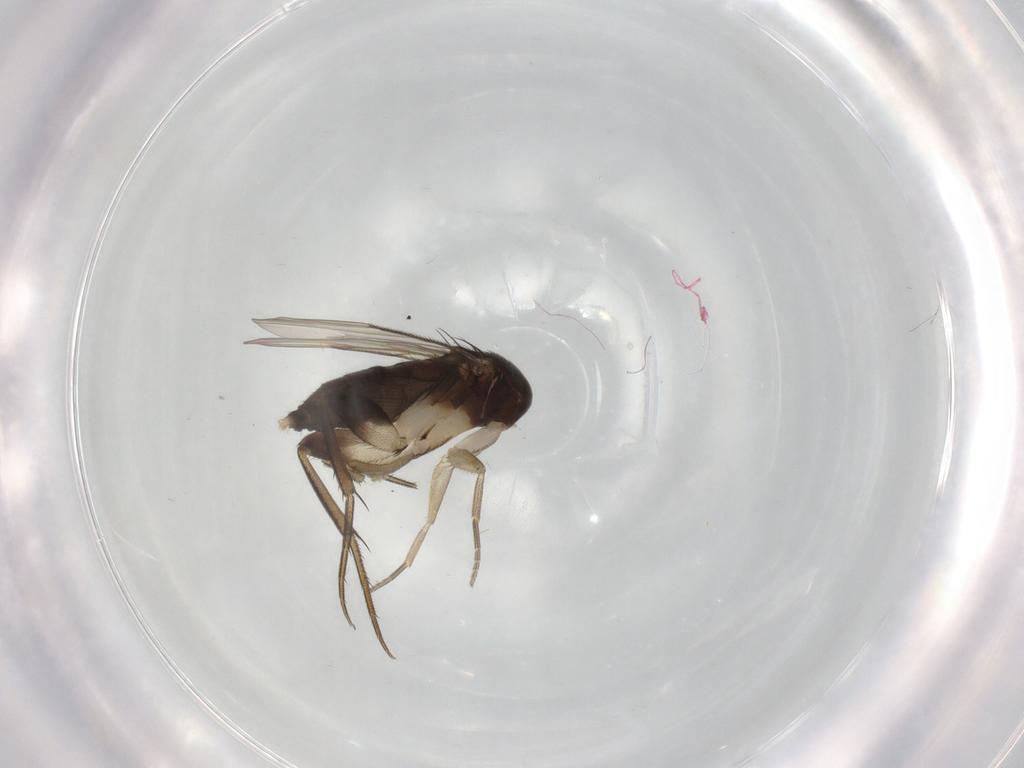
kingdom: Animalia
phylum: Arthropoda
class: Insecta
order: Diptera
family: Phoridae
